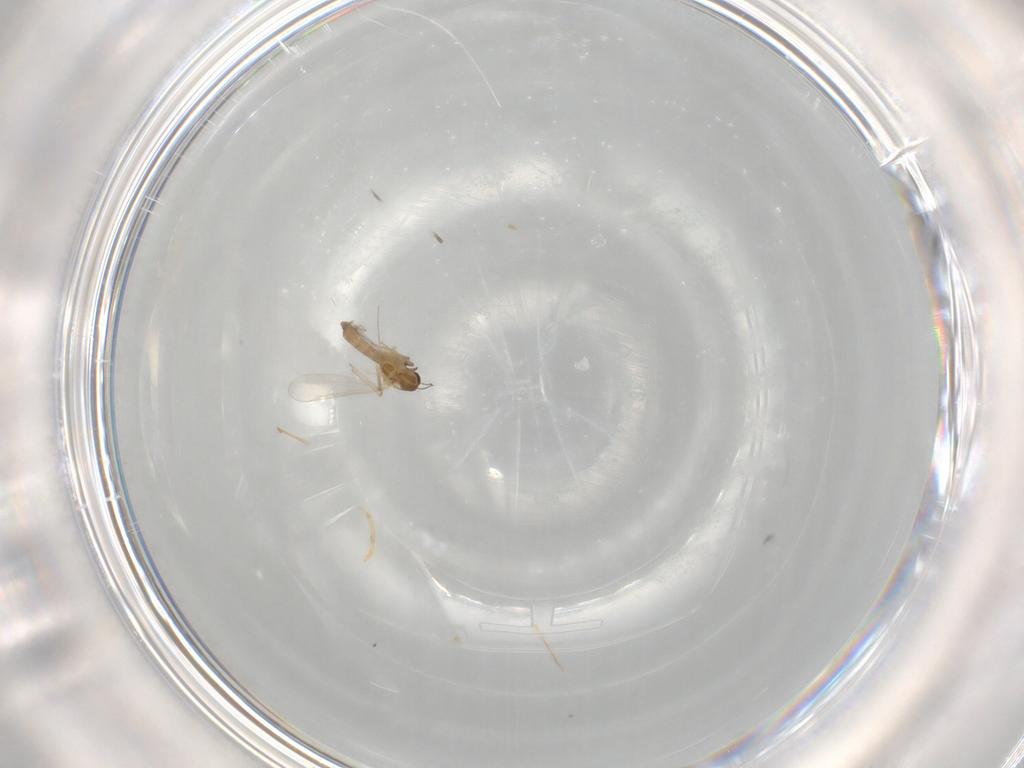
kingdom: Animalia
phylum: Arthropoda
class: Insecta
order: Diptera
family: Chironomidae
